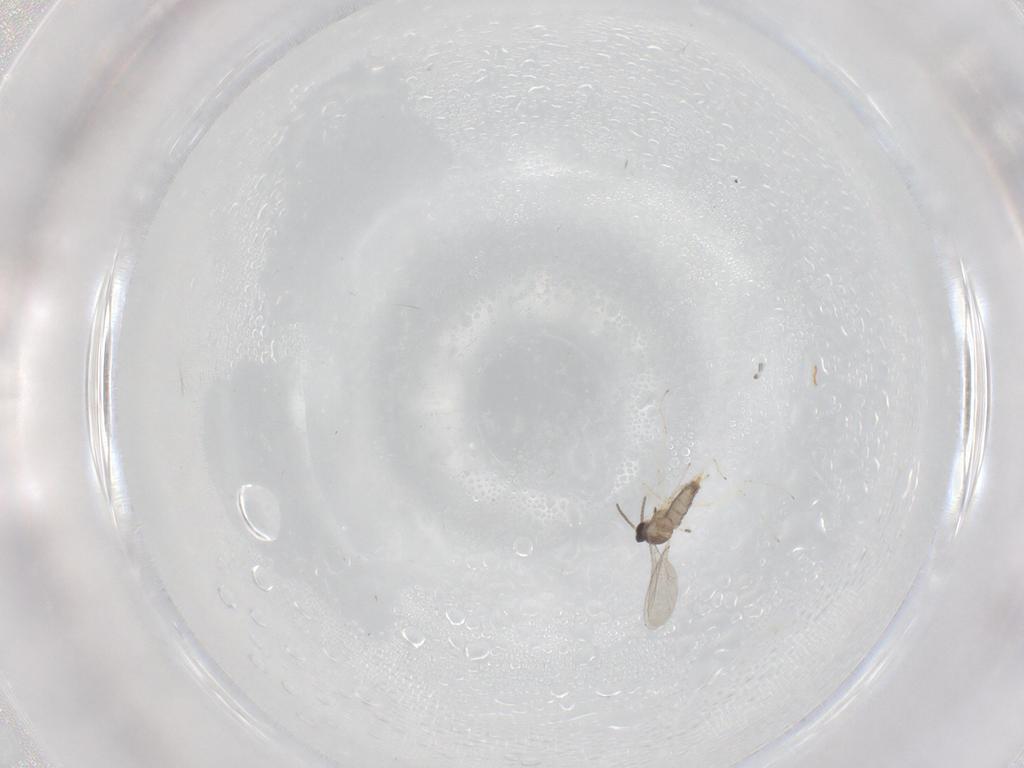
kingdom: Animalia
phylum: Arthropoda
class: Insecta
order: Diptera
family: Cecidomyiidae
